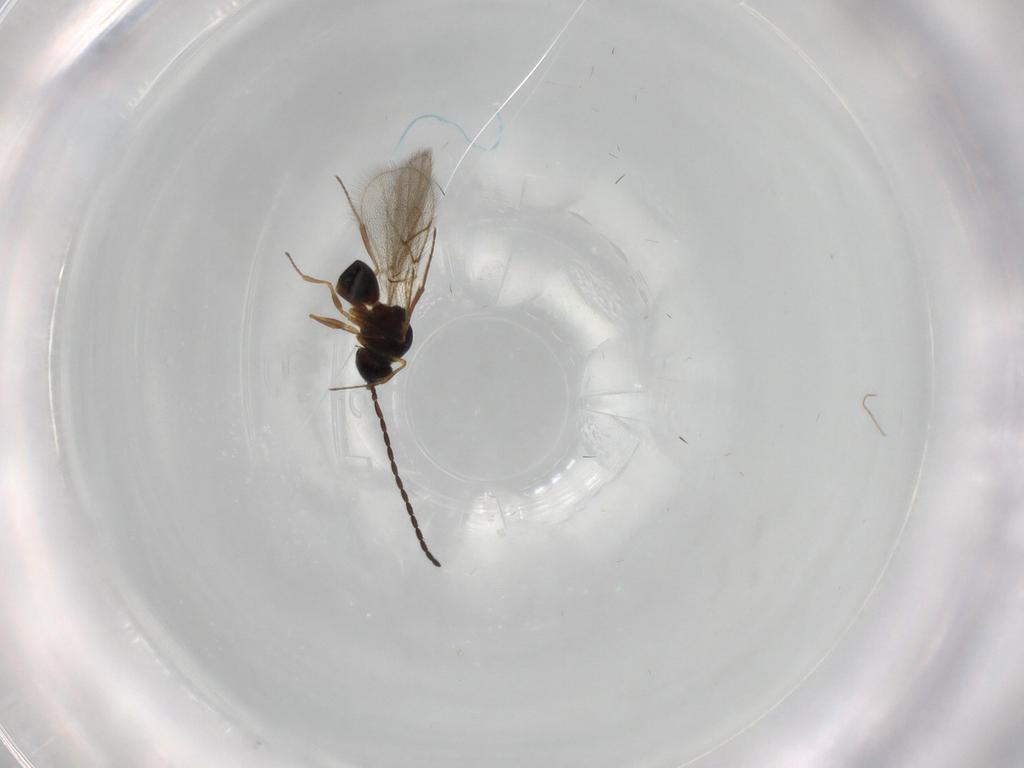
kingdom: Animalia
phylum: Arthropoda
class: Insecta
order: Hymenoptera
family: Figitidae
